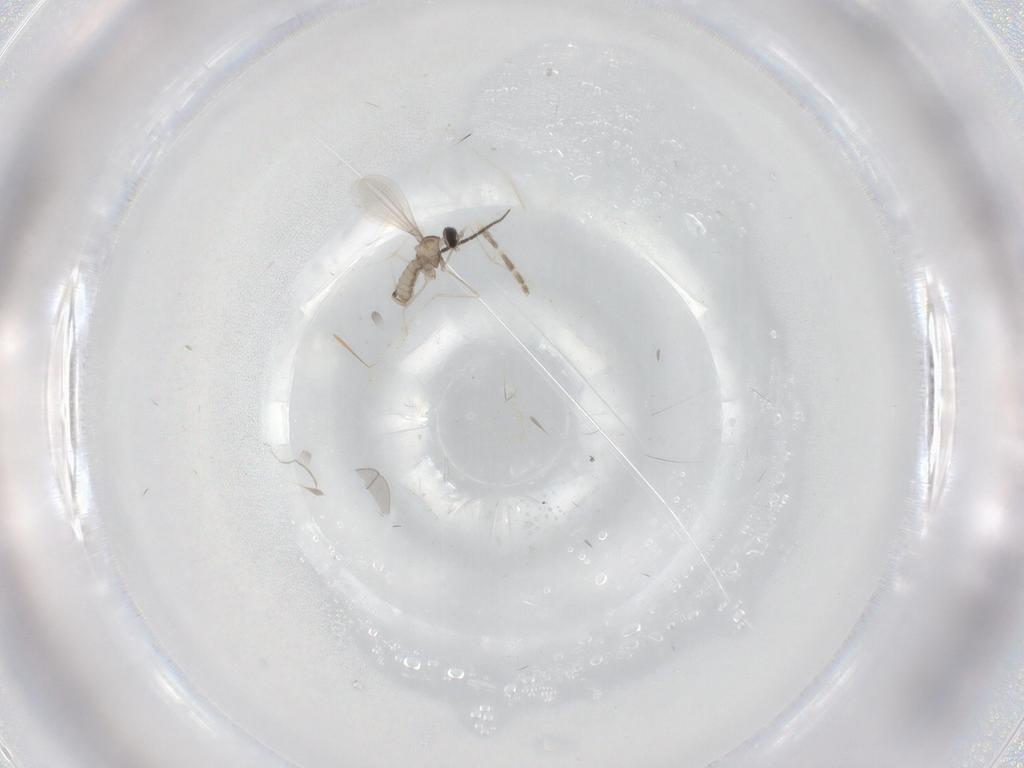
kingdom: Animalia
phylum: Arthropoda
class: Insecta
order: Diptera
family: Cecidomyiidae
